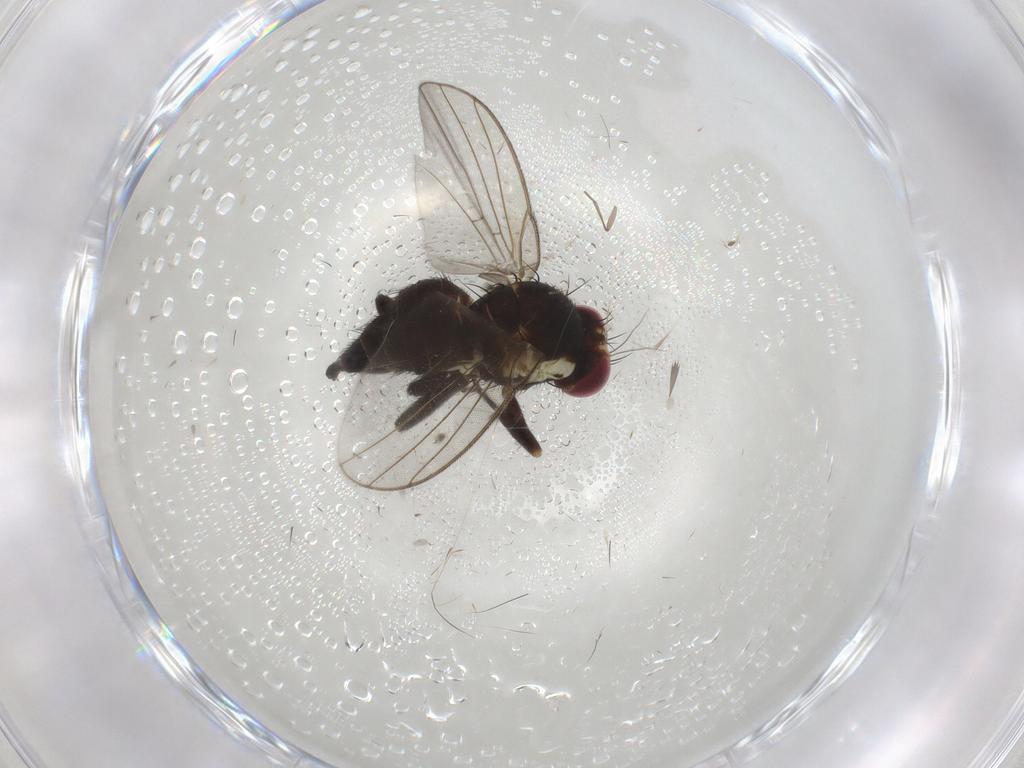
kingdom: Animalia
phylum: Arthropoda
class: Insecta
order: Diptera
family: Agromyzidae
